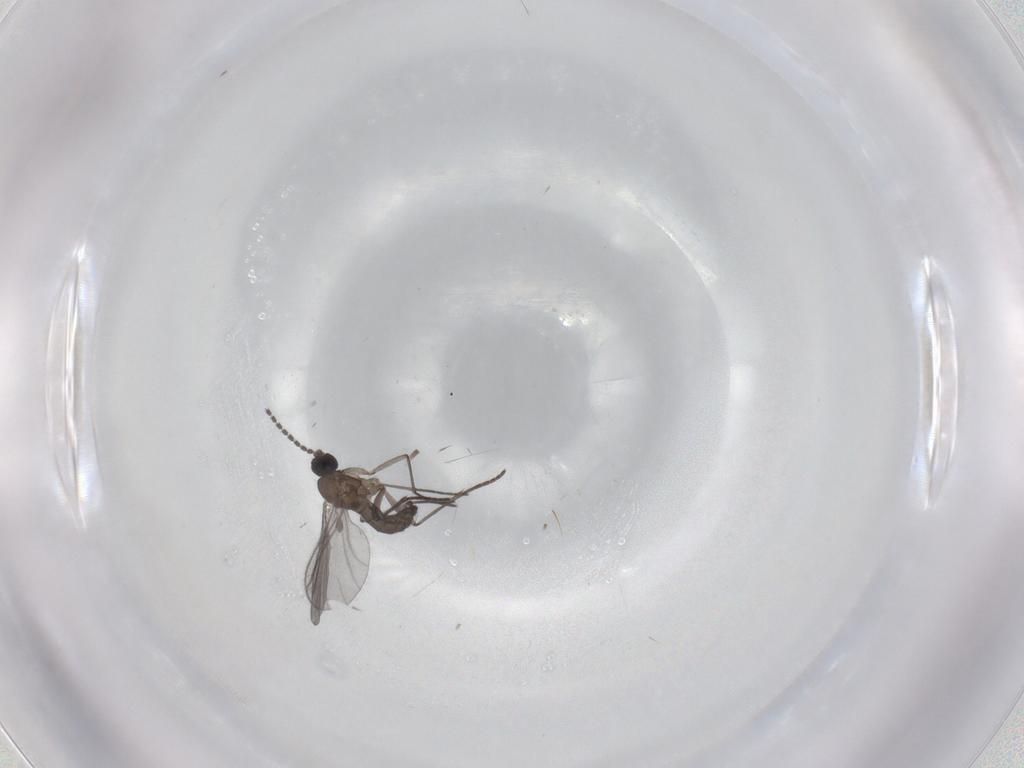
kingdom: Animalia
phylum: Arthropoda
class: Insecta
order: Diptera
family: Empididae
